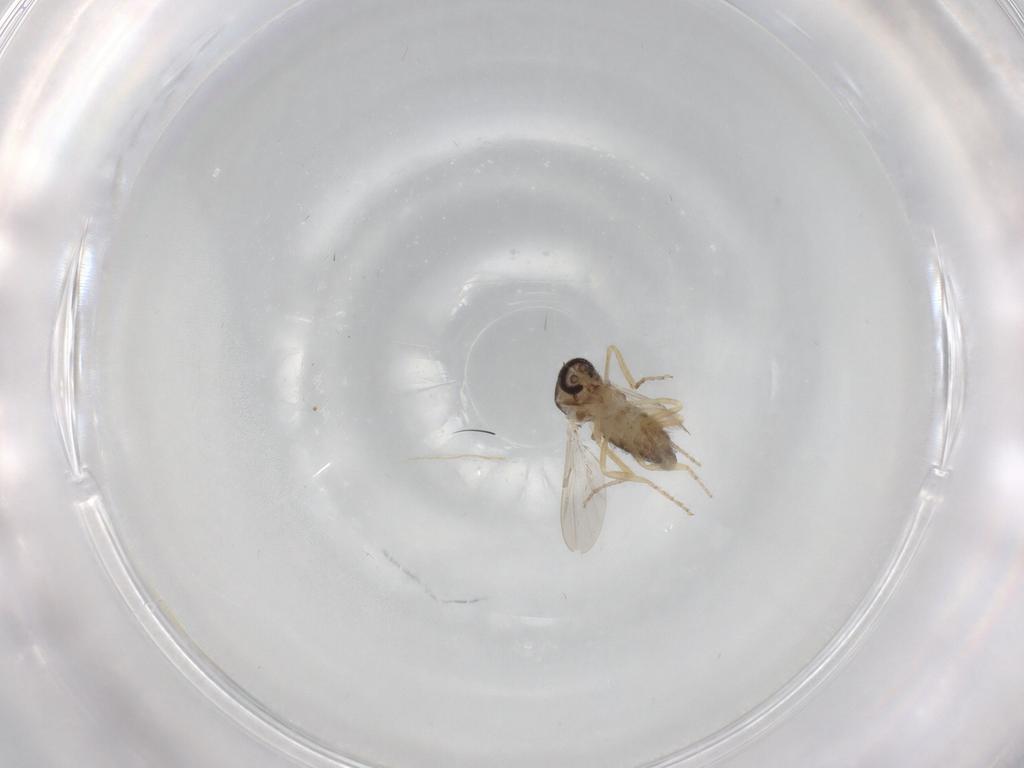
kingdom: Animalia
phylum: Arthropoda
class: Insecta
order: Diptera
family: Ceratopogonidae
